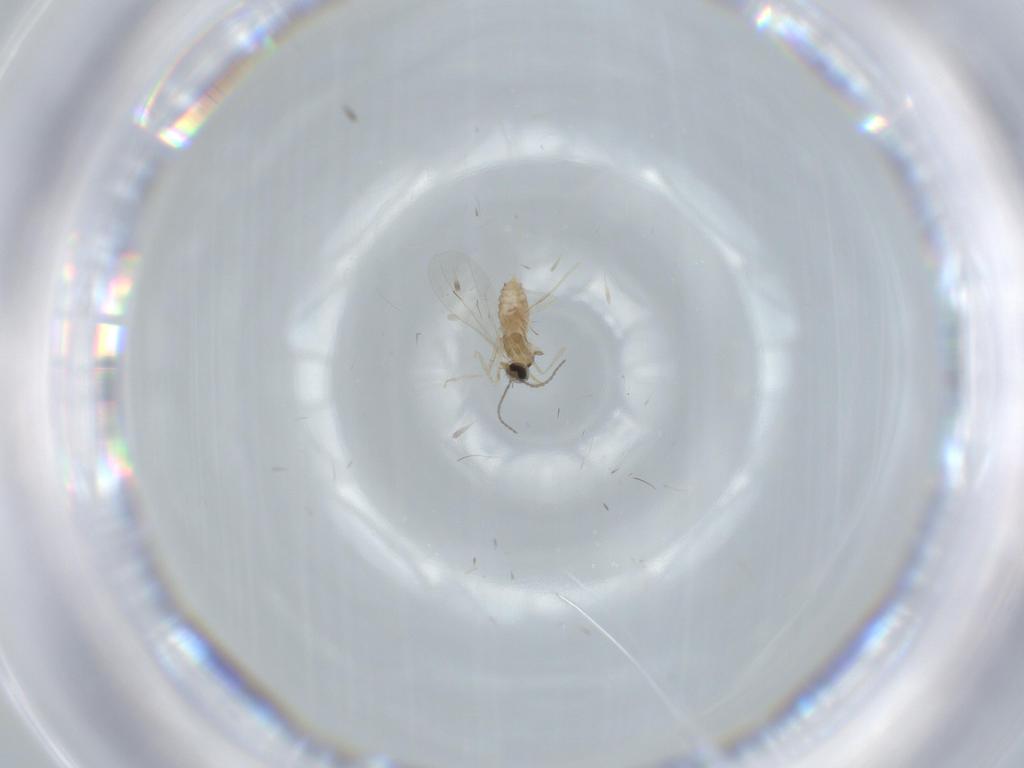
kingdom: Animalia
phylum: Arthropoda
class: Insecta
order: Diptera
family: Cecidomyiidae
